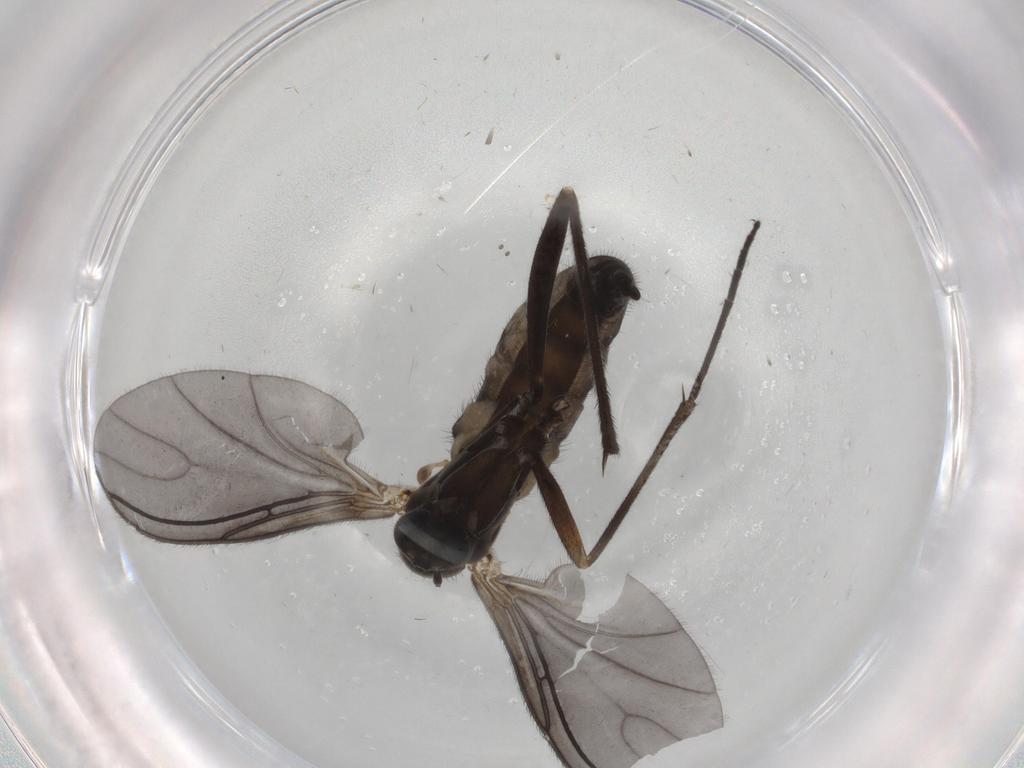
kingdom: Animalia
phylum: Arthropoda
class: Insecta
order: Diptera
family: Sciaridae
